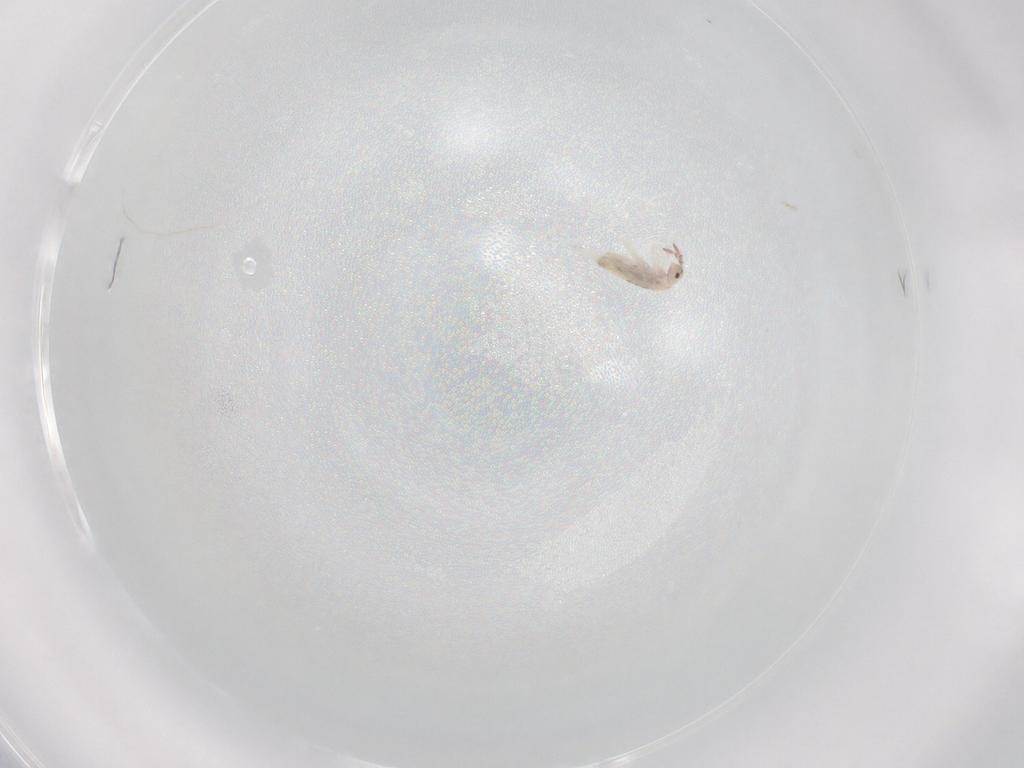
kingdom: Animalia
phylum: Arthropoda
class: Collembola
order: Entomobryomorpha
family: Entomobryidae
